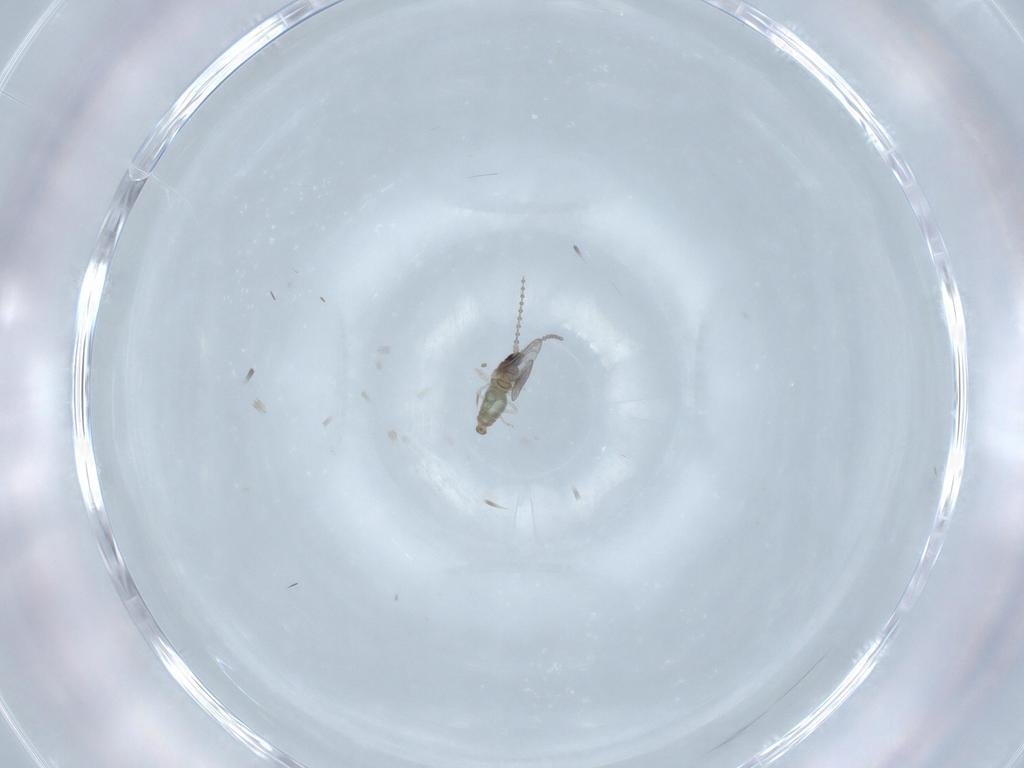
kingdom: Animalia
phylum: Arthropoda
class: Insecta
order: Diptera
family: Cecidomyiidae
